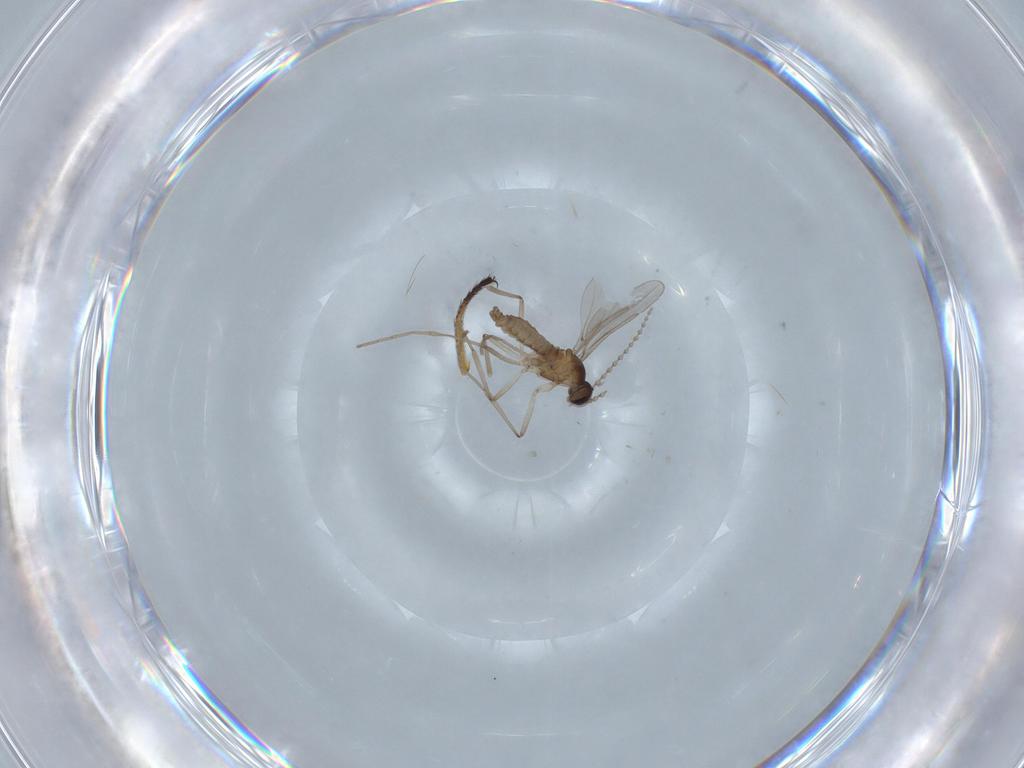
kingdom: Animalia
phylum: Arthropoda
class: Insecta
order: Diptera
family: Cecidomyiidae
